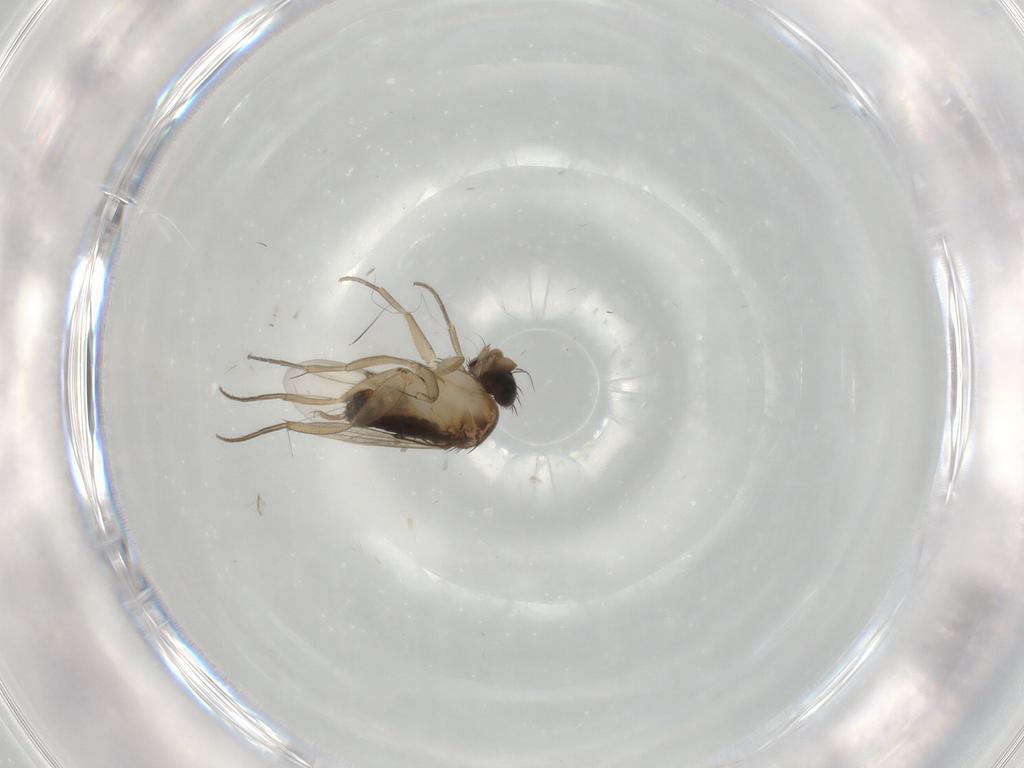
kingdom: Animalia
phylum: Arthropoda
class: Insecta
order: Diptera
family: Phoridae
